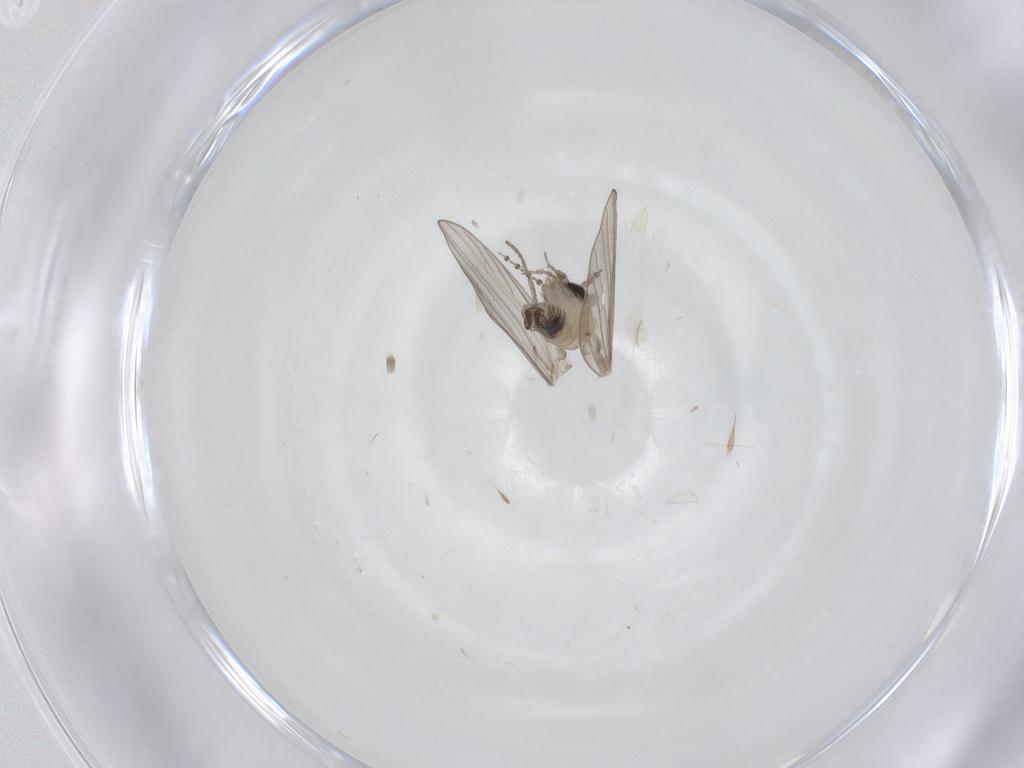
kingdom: Animalia
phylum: Arthropoda
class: Insecta
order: Diptera
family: Psychodidae
